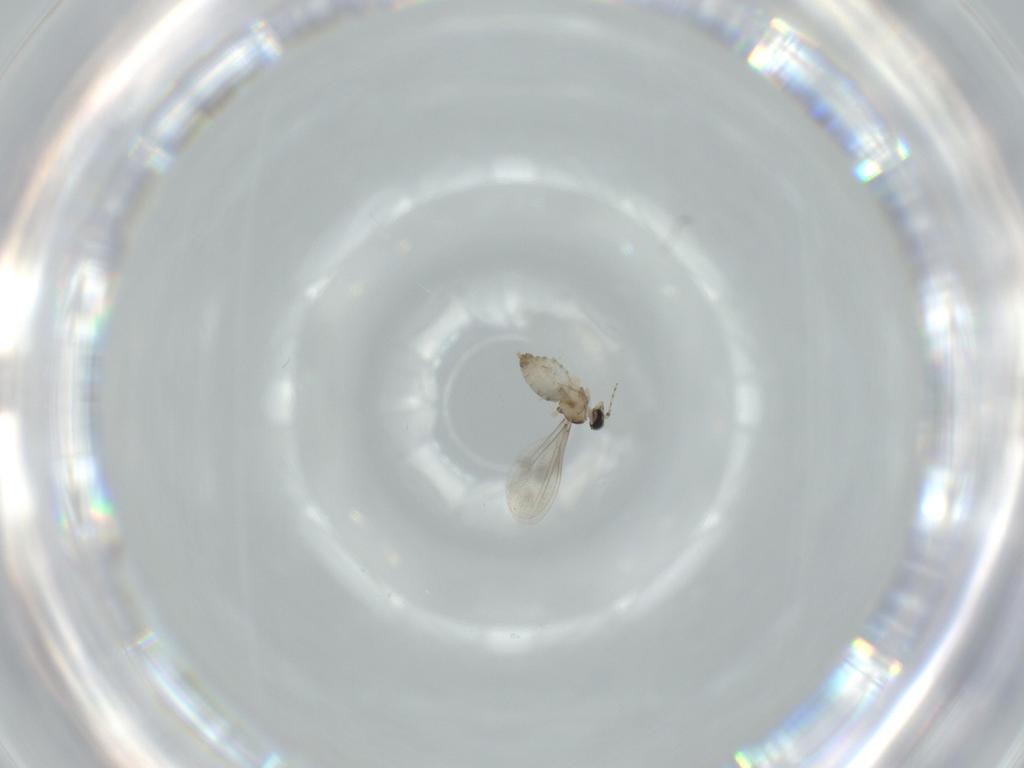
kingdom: Animalia
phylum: Arthropoda
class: Insecta
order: Diptera
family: Cecidomyiidae
